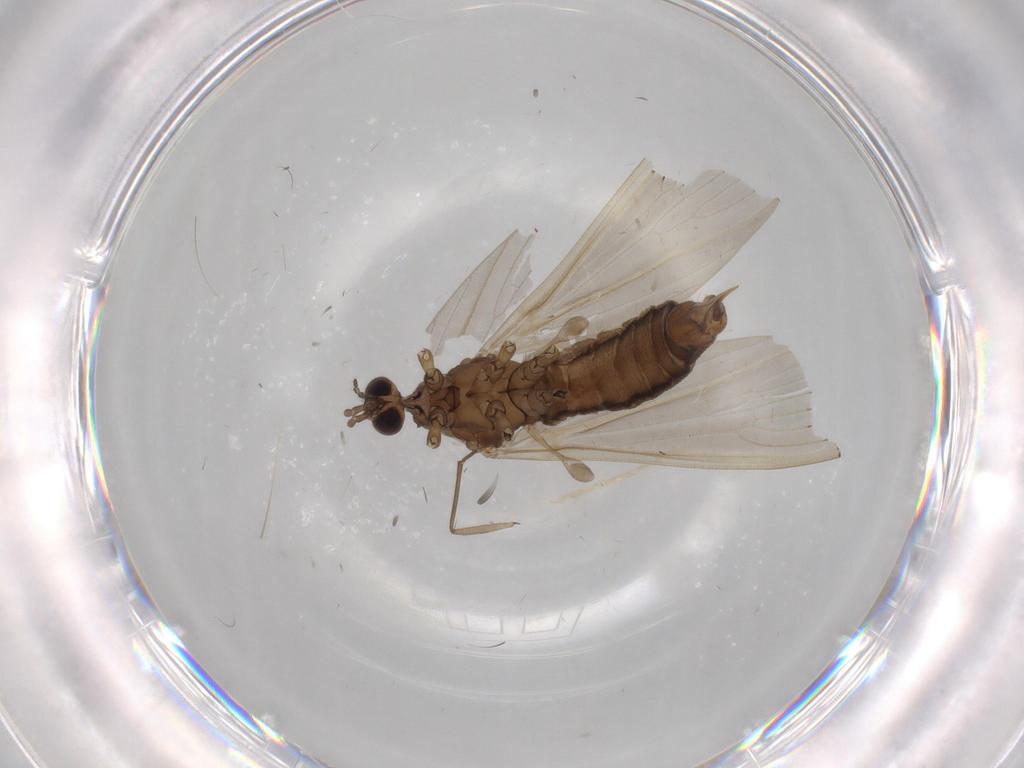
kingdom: Animalia
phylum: Arthropoda
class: Insecta
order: Diptera
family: Limoniidae
